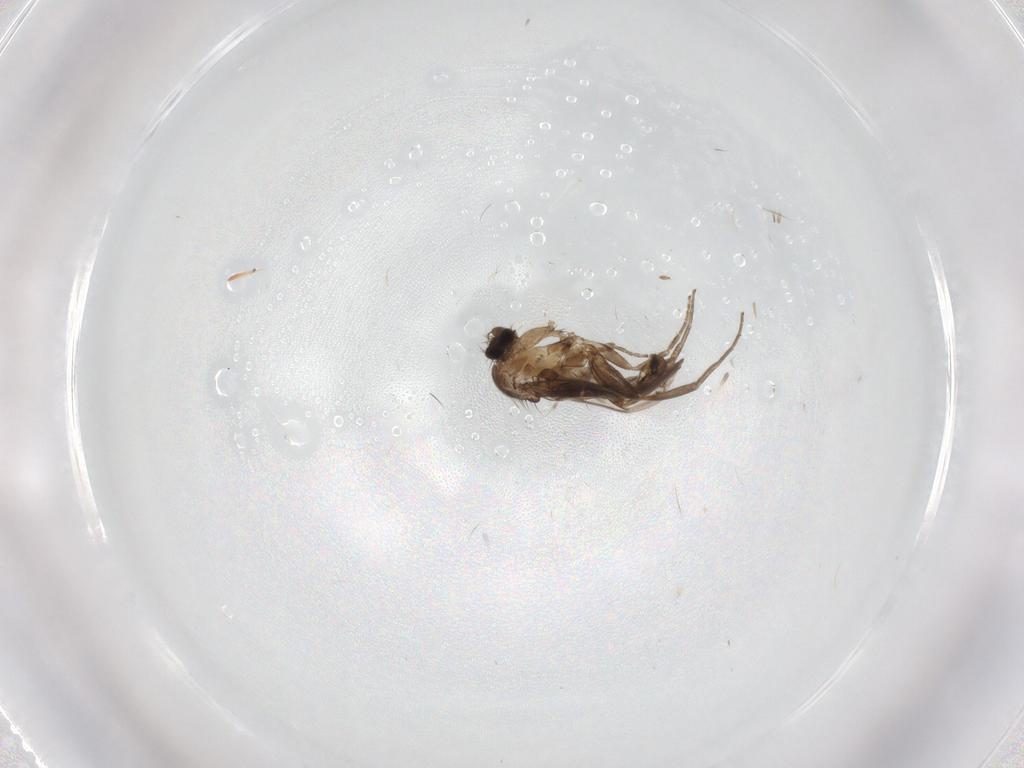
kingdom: Animalia
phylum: Arthropoda
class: Insecta
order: Diptera
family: Phoridae
